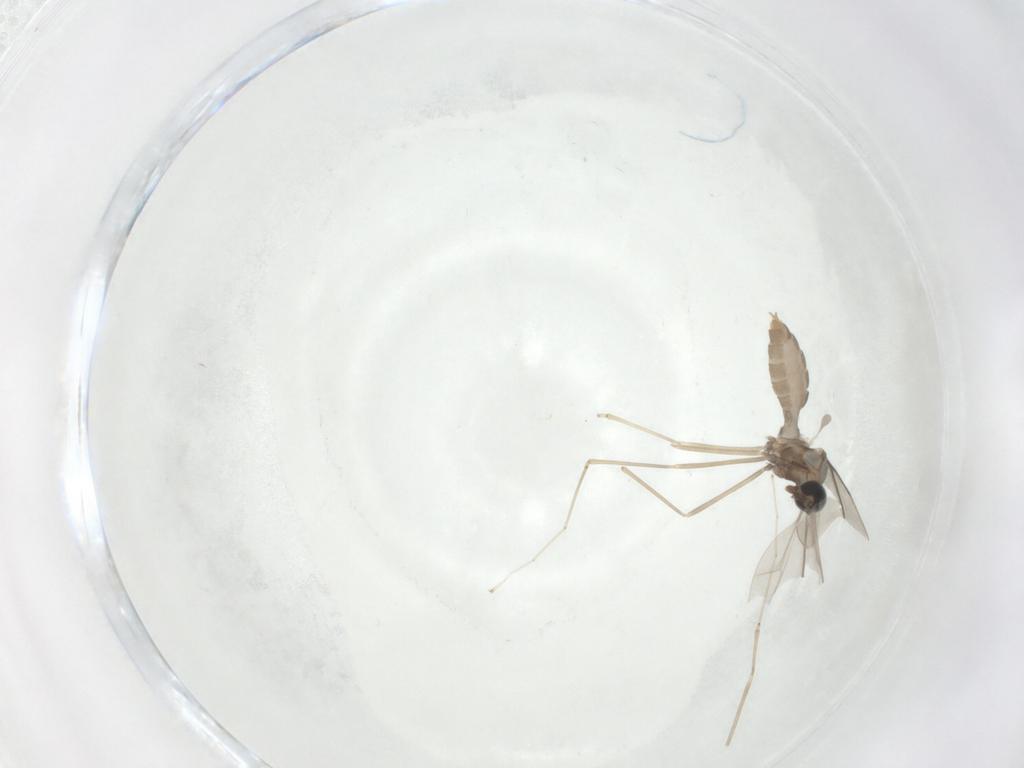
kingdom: Animalia
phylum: Arthropoda
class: Insecta
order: Diptera
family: Cecidomyiidae
